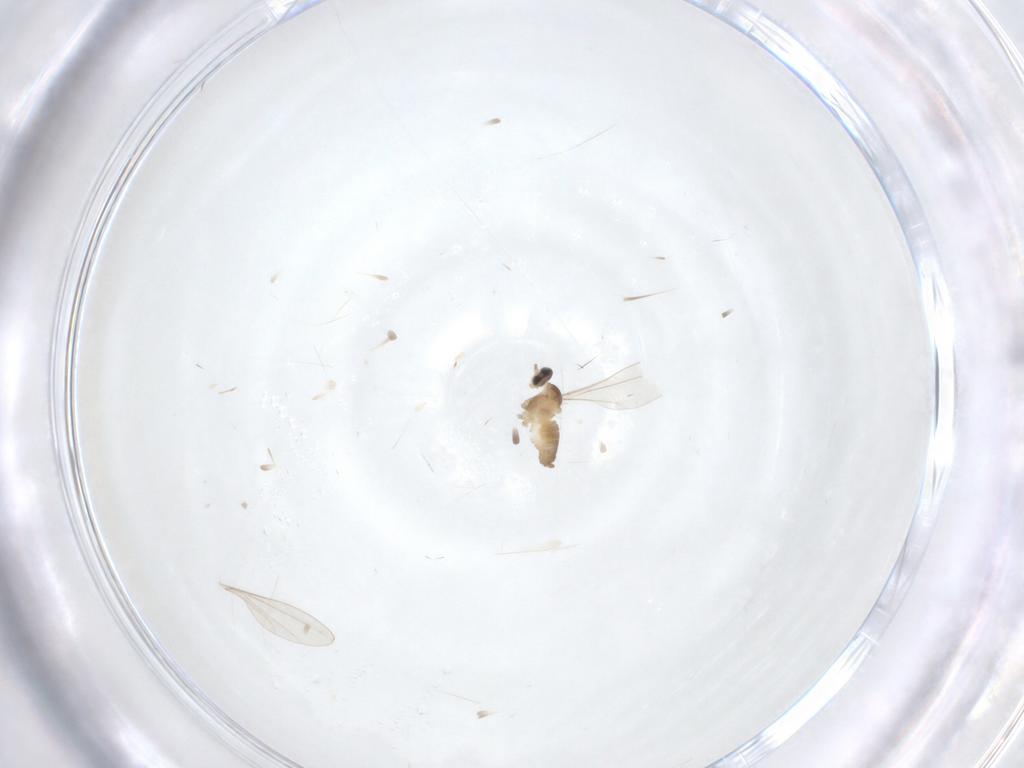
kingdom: Animalia
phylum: Arthropoda
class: Insecta
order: Diptera
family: Cecidomyiidae
